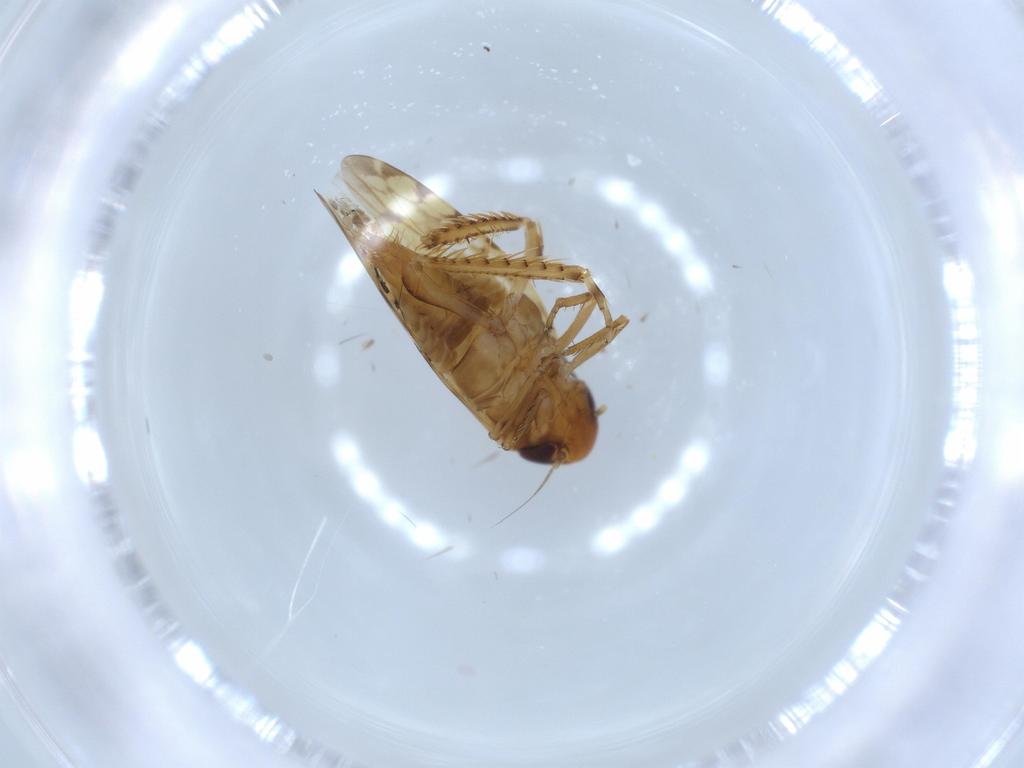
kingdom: Animalia
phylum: Arthropoda
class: Insecta
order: Hemiptera
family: Cicadellidae
